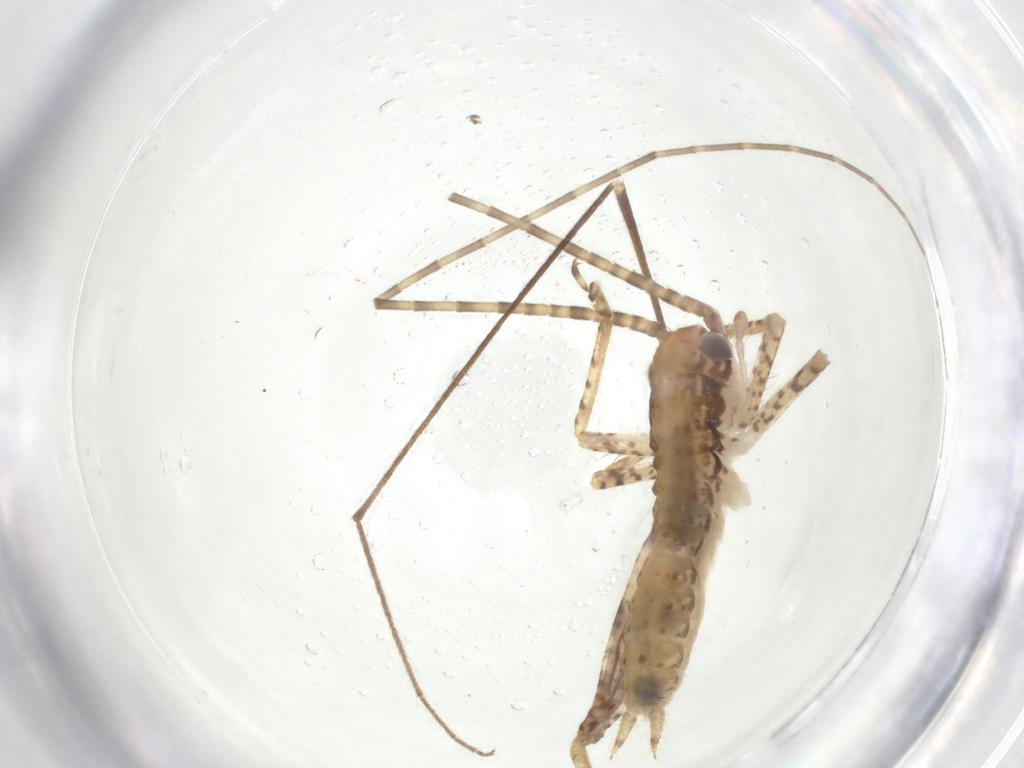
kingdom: Animalia
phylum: Arthropoda
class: Insecta
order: Orthoptera
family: Gryllidae
